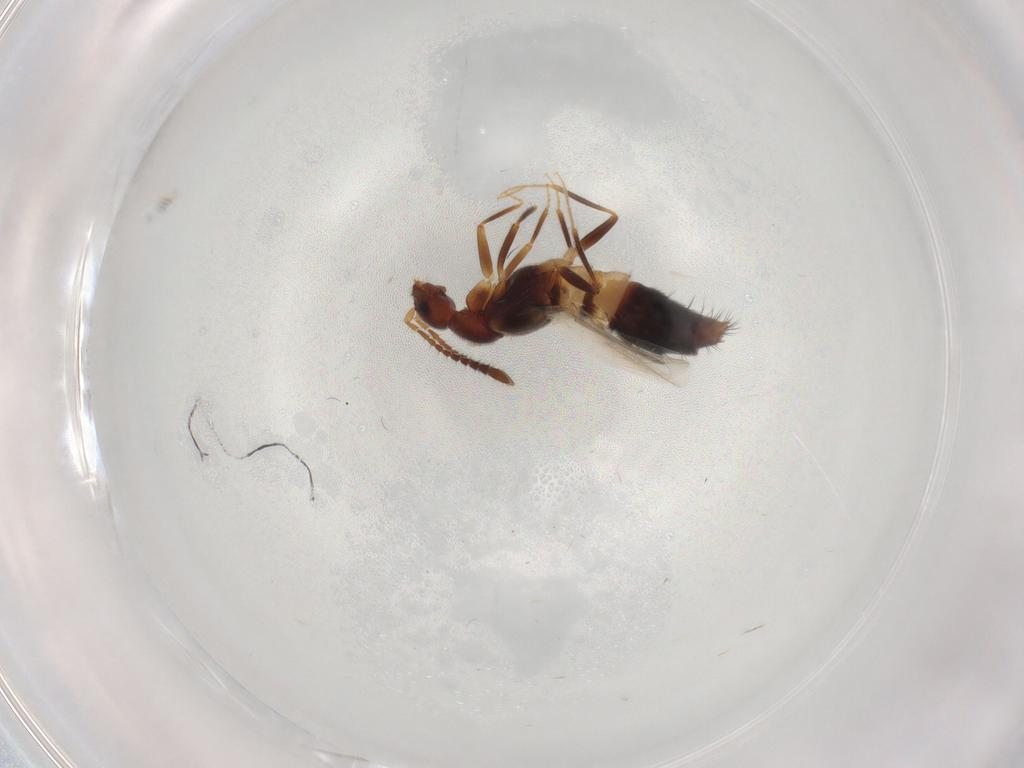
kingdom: Animalia
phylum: Arthropoda
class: Insecta
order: Coleoptera
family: Staphylinidae
